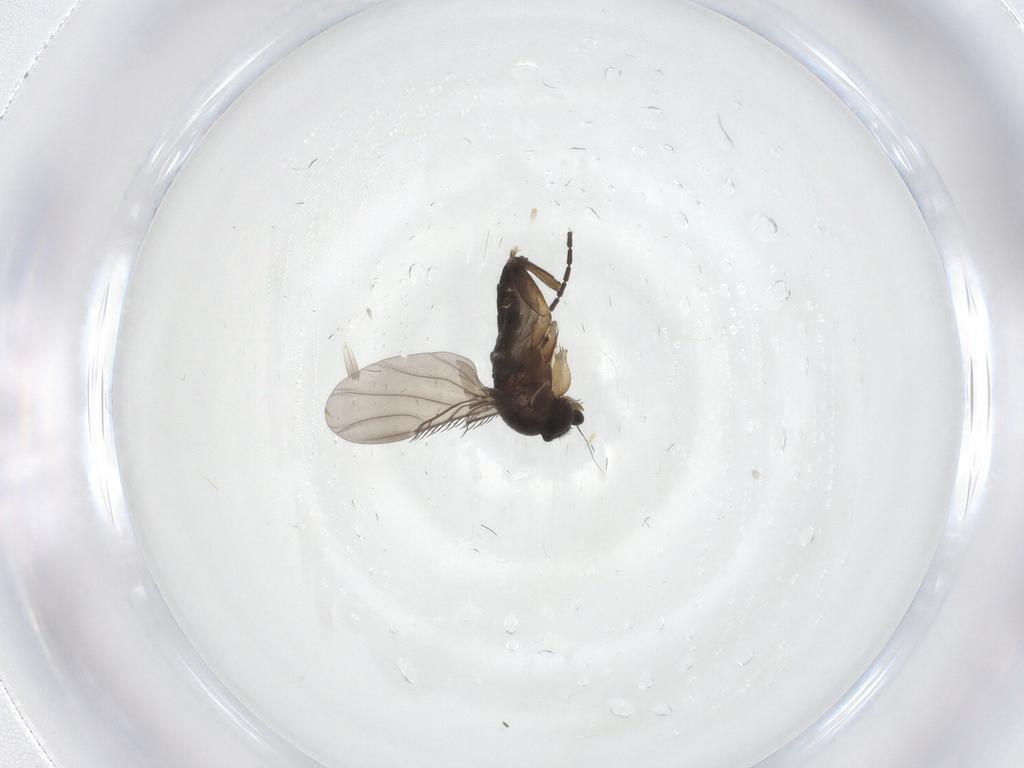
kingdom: Animalia
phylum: Arthropoda
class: Insecta
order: Diptera
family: Phoridae
